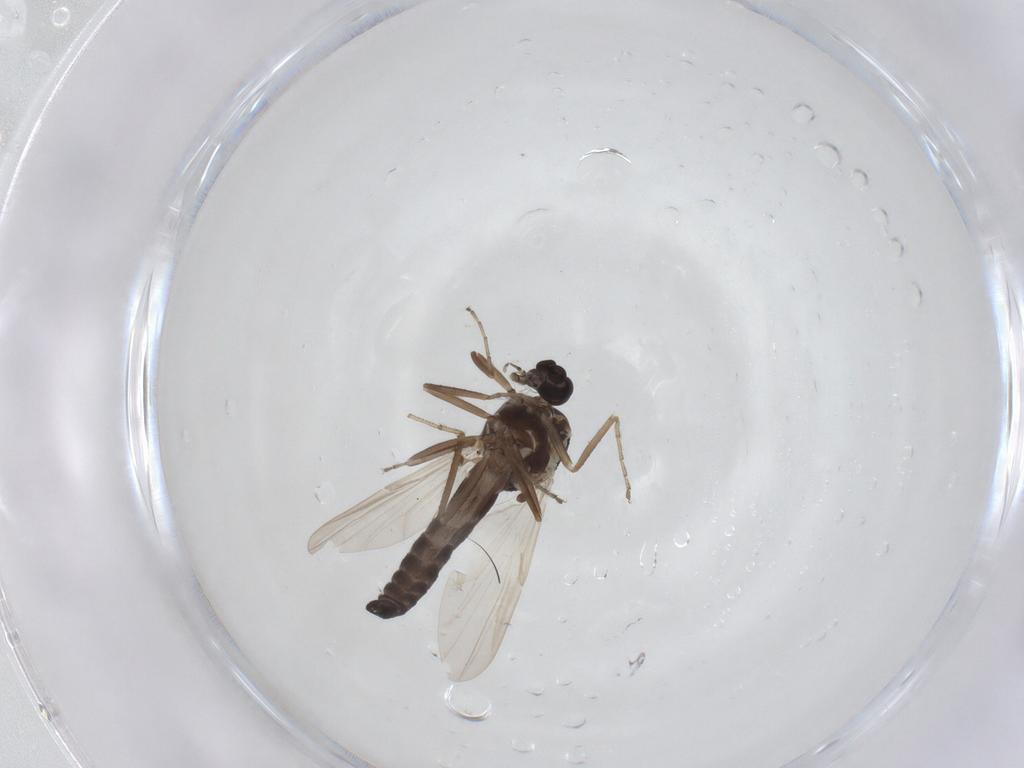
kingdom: Animalia
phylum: Arthropoda
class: Insecta
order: Diptera
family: Ceratopogonidae
